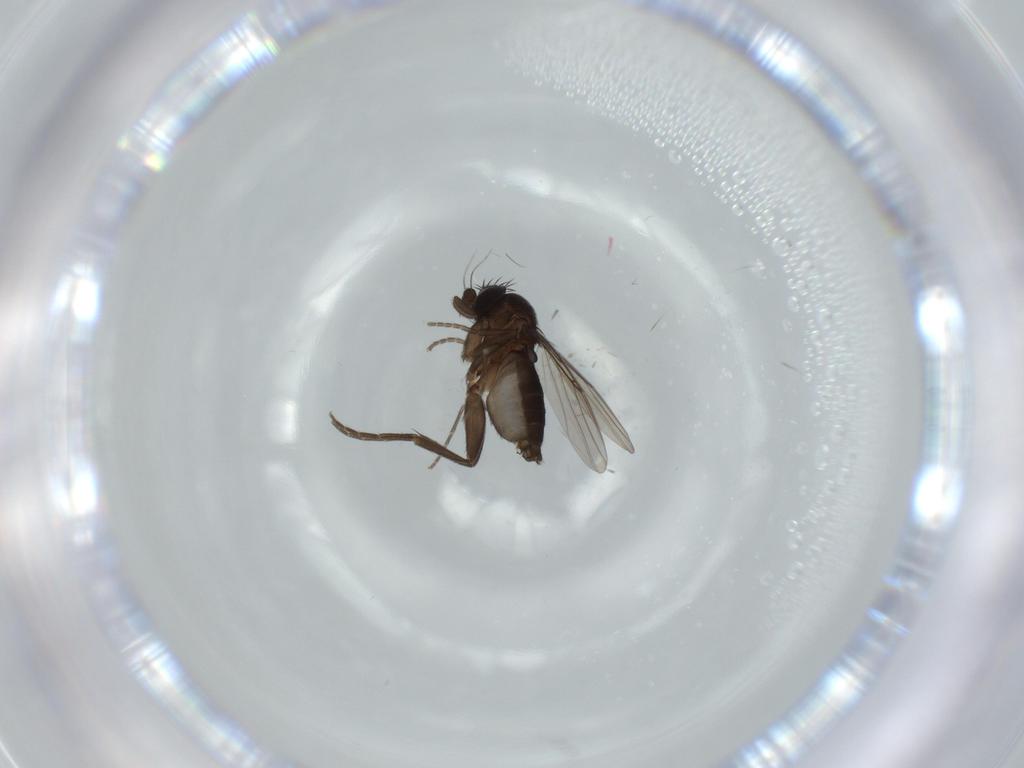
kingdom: Animalia
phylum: Arthropoda
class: Insecta
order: Diptera
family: Phoridae
